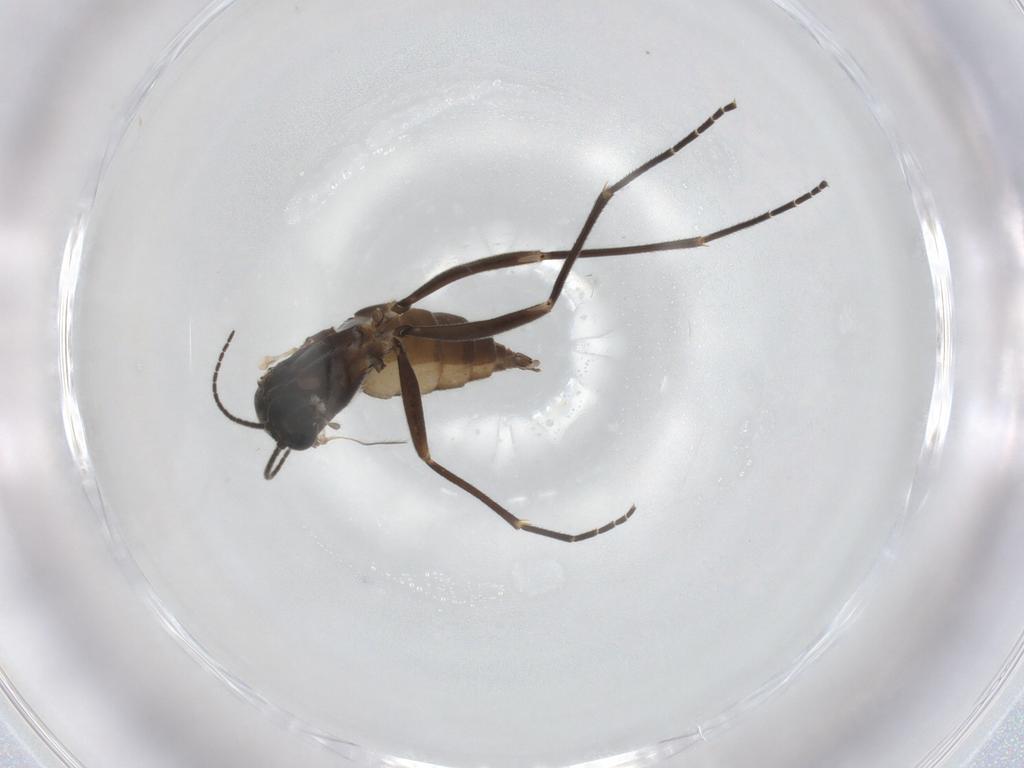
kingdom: Animalia
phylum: Arthropoda
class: Insecta
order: Diptera
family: Sciaridae
